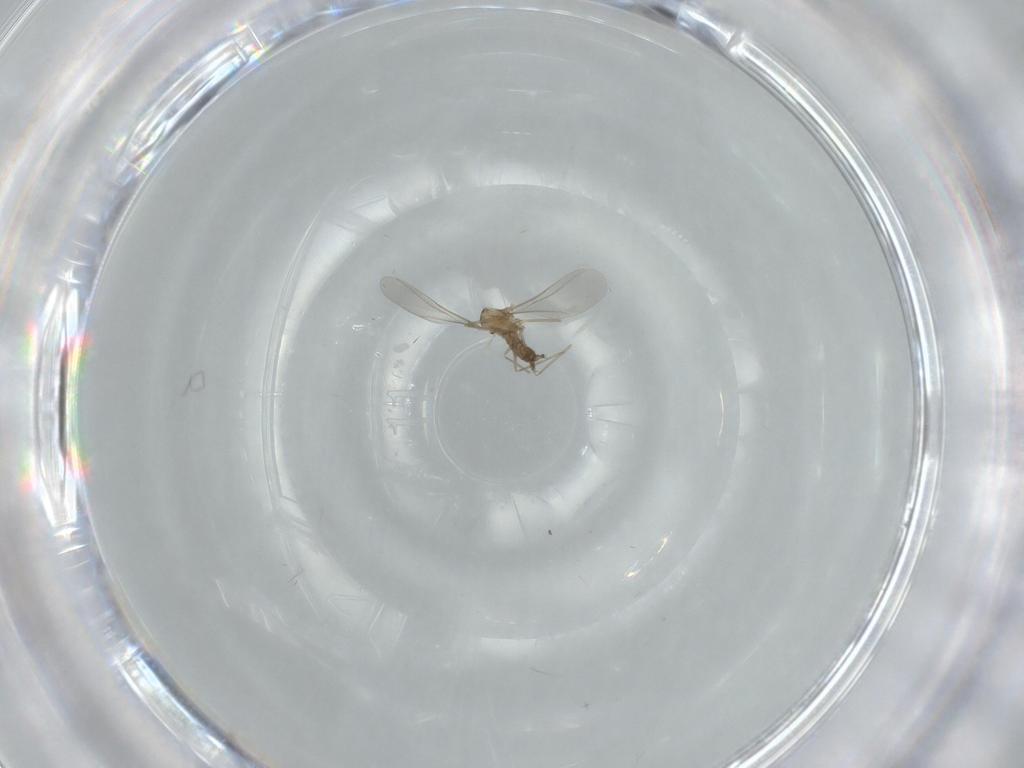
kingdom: Animalia
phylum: Arthropoda
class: Insecta
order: Diptera
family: Cecidomyiidae
